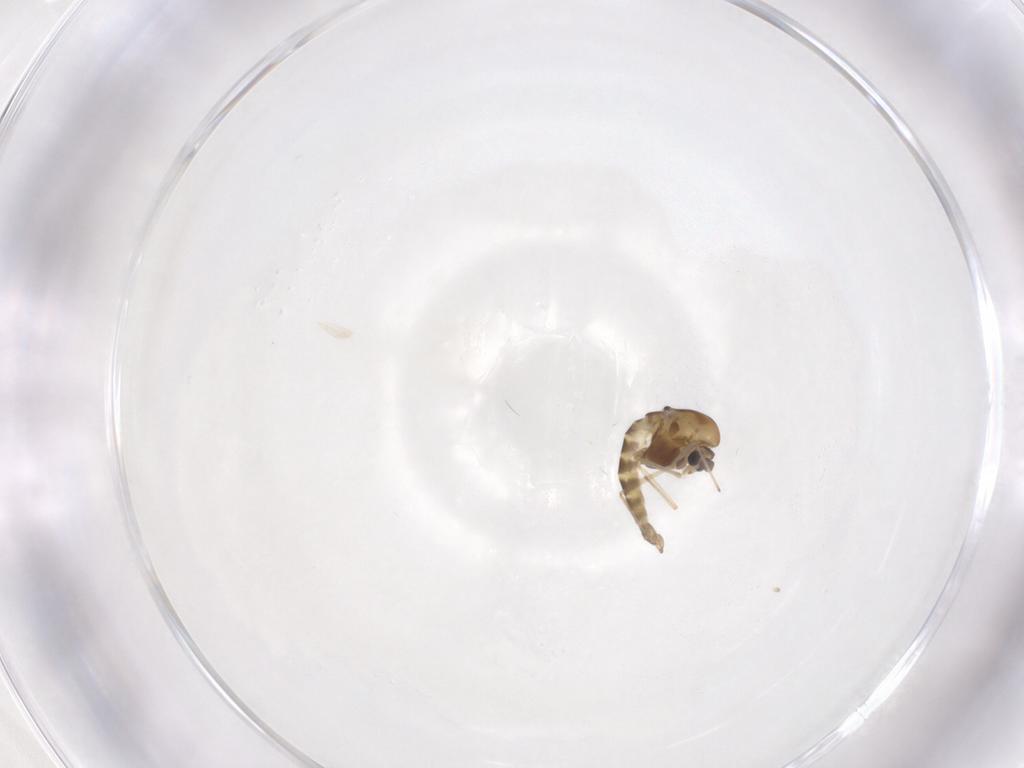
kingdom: Animalia
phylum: Arthropoda
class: Insecta
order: Diptera
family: Chironomidae
